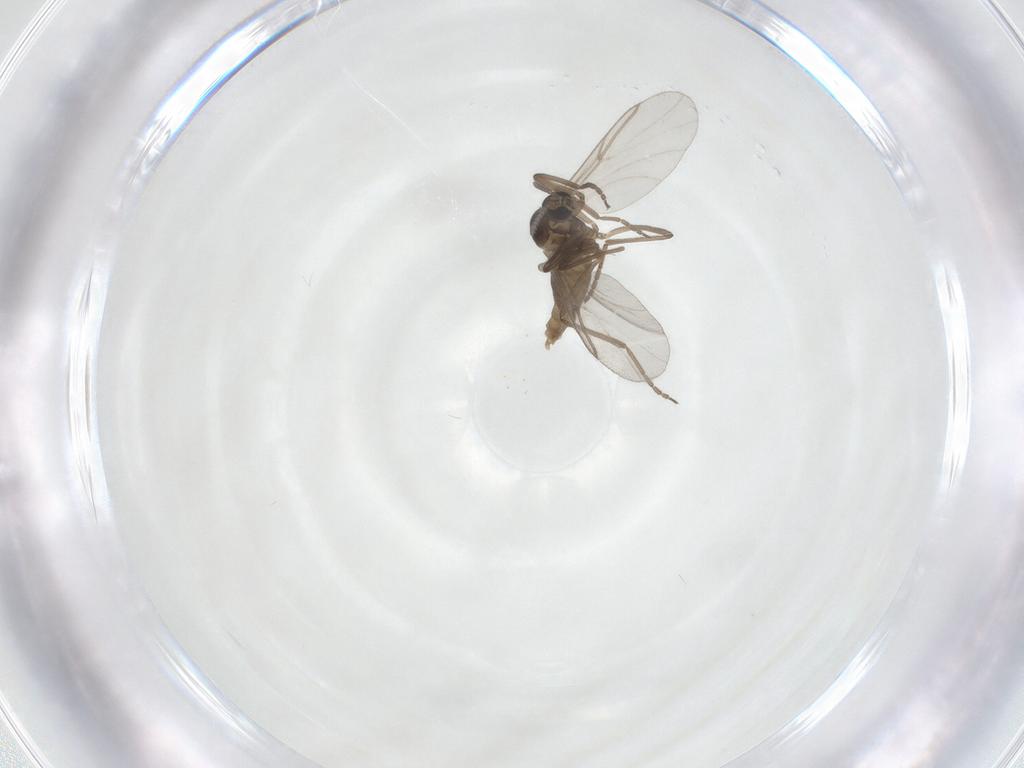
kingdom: Animalia
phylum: Arthropoda
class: Insecta
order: Diptera
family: Cecidomyiidae
